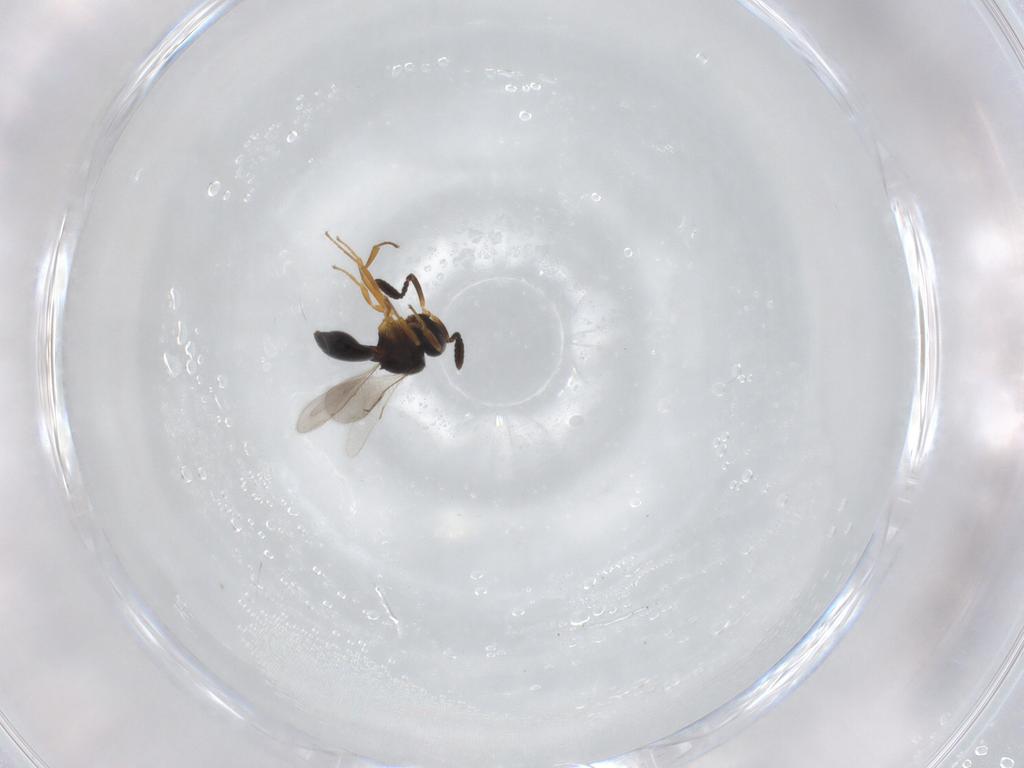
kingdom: Animalia
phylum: Arthropoda
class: Insecta
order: Hymenoptera
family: Scelionidae
